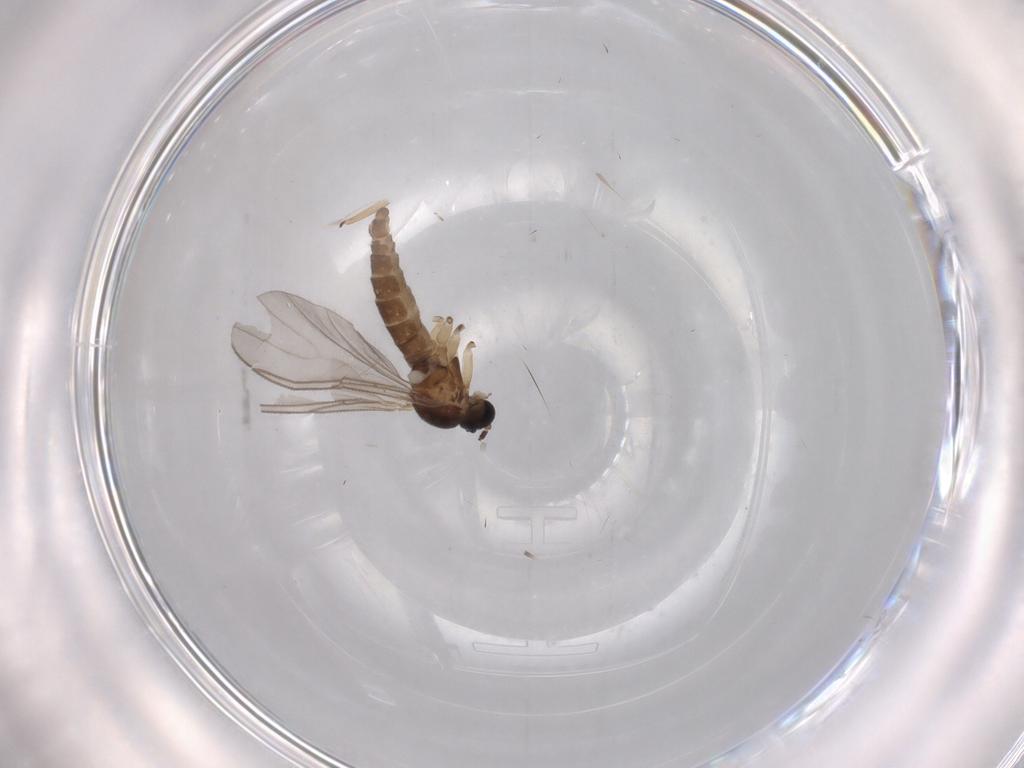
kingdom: Animalia
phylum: Arthropoda
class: Insecta
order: Diptera
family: Sciaridae
